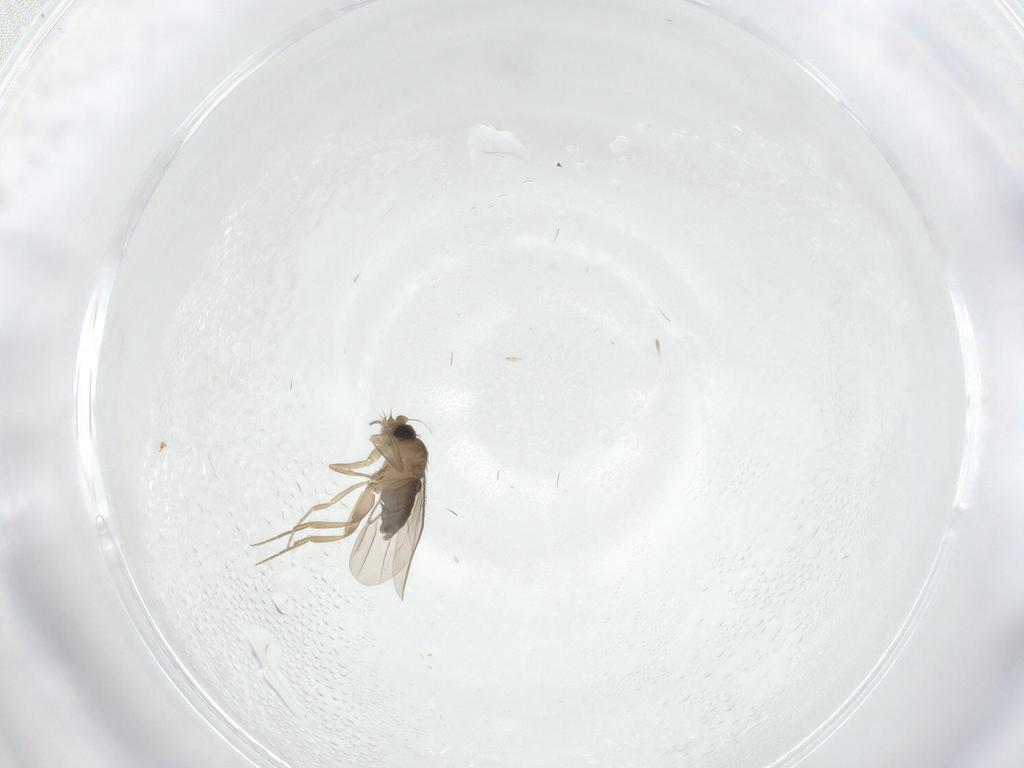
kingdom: Animalia
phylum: Arthropoda
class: Insecta
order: Diptera
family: Phoridae
